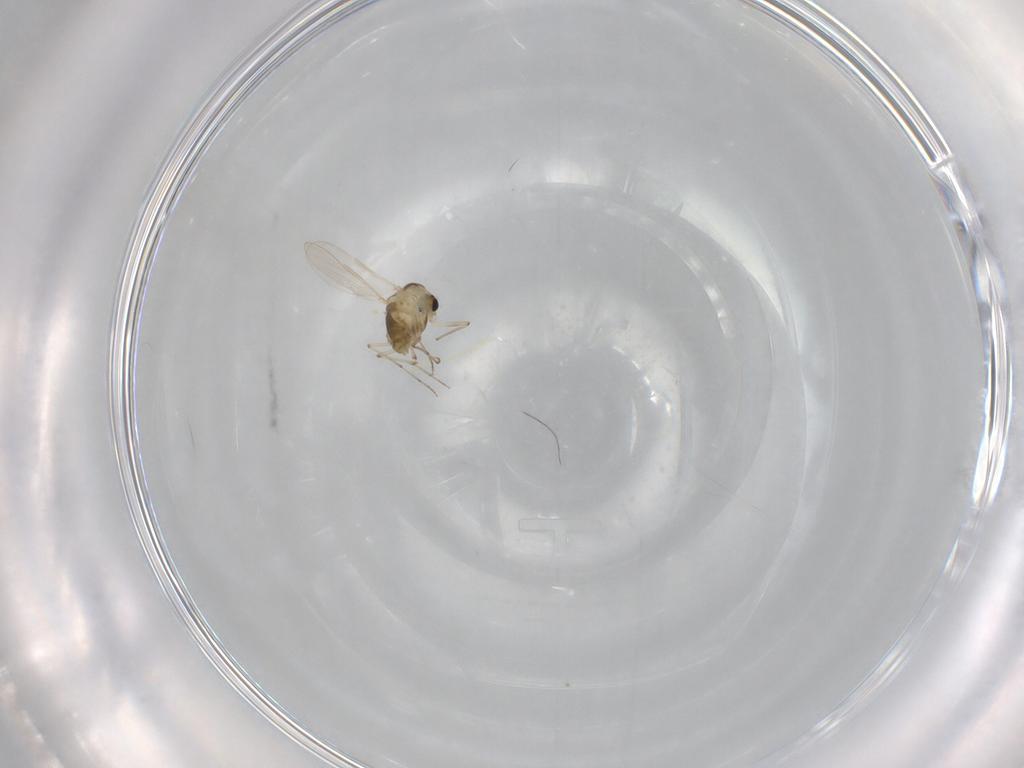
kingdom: Animalia
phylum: Arthropoda
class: Insecta
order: Diptera
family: Chironomidae
